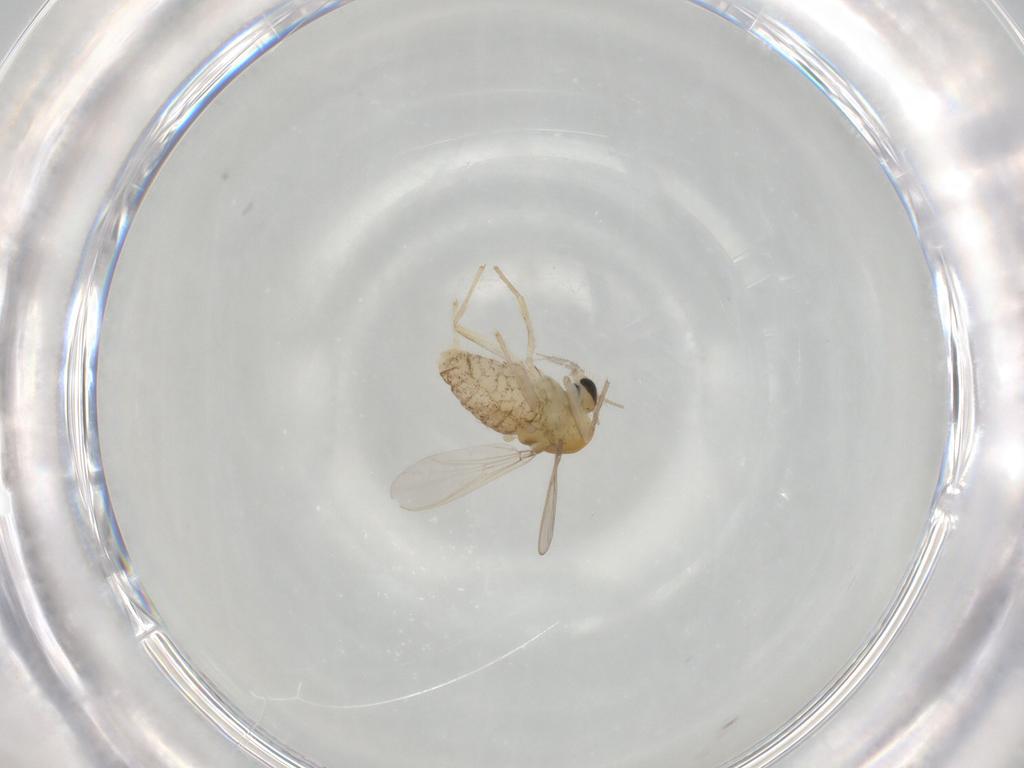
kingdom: Animalia
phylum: Arthropoda
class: Insecta
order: Diptera
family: Chironomidae
